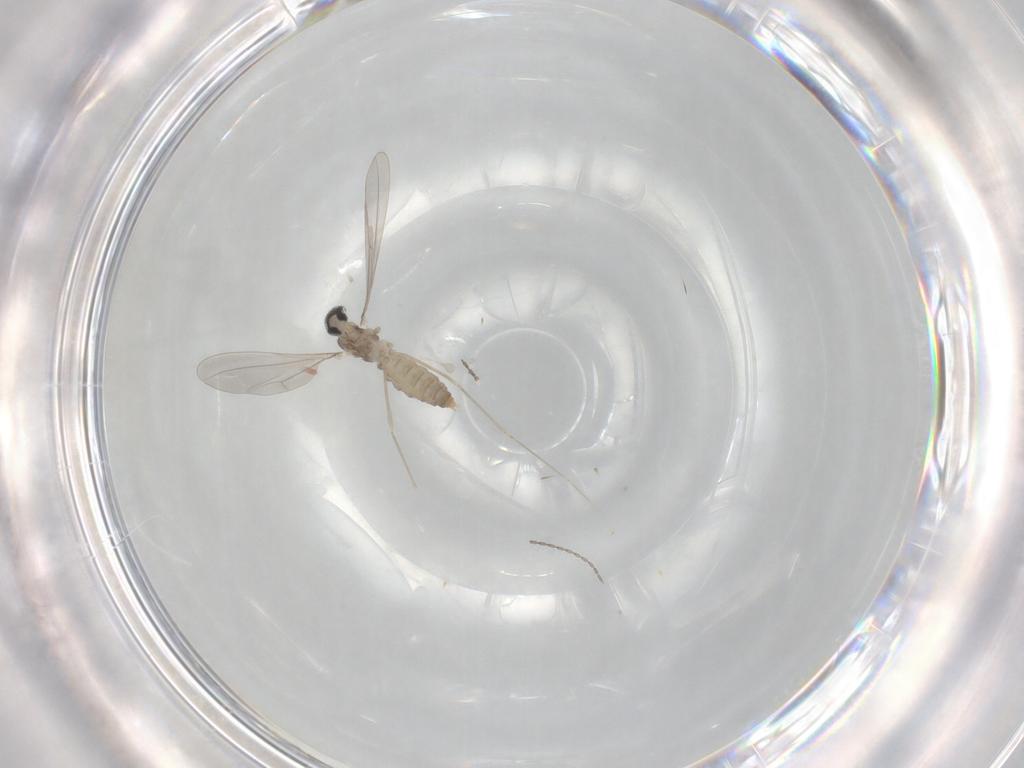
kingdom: Animalia
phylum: Arthropoda
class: Insecta
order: Diptera
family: Cecidomyiidae
